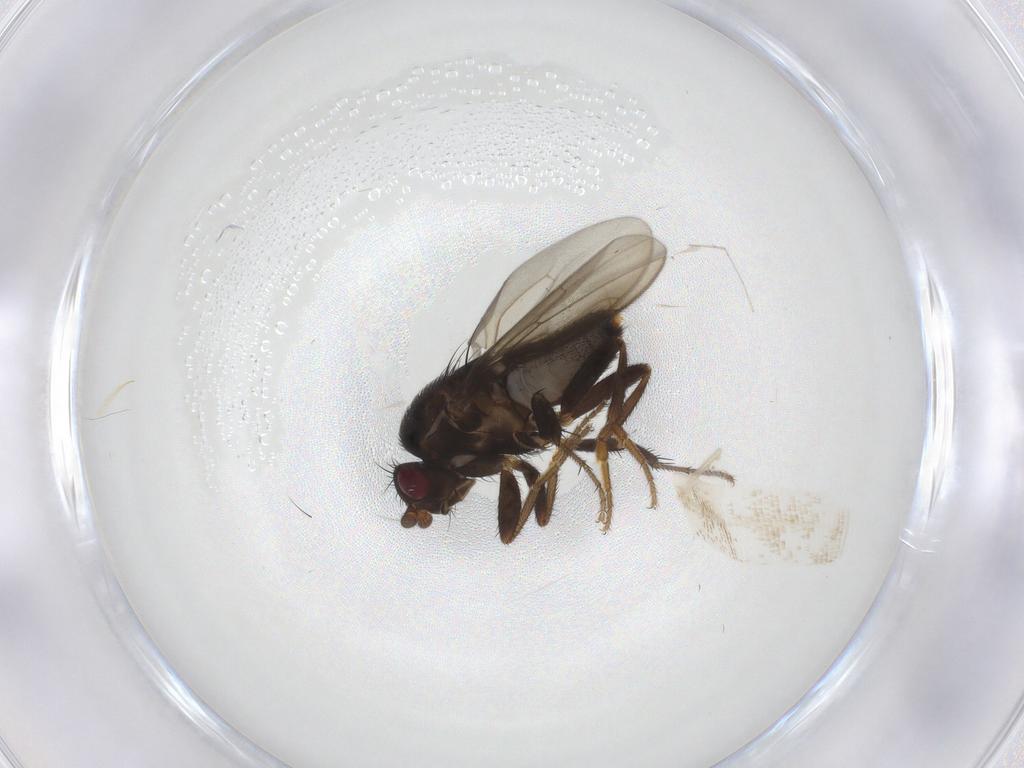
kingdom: Animalia
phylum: Arthropoda
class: Insecta
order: Diptera
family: Sphaeroceridae
